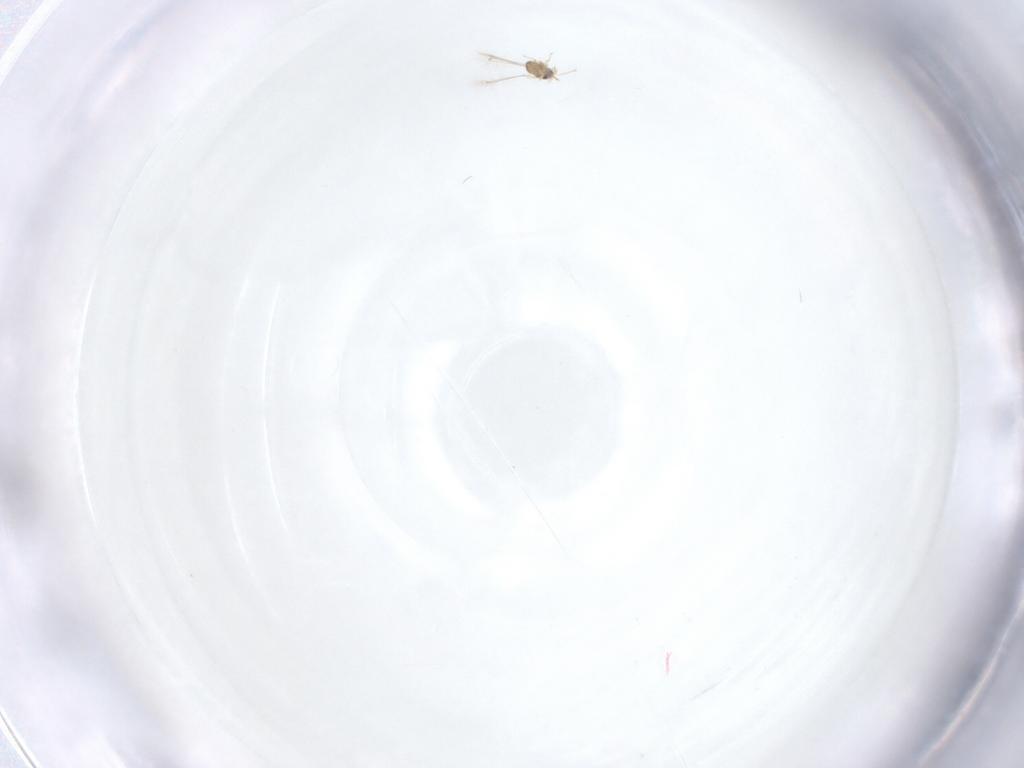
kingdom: Animalia
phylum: Arthropoda
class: Insecta
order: Hymenoptera
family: Mymaridae
